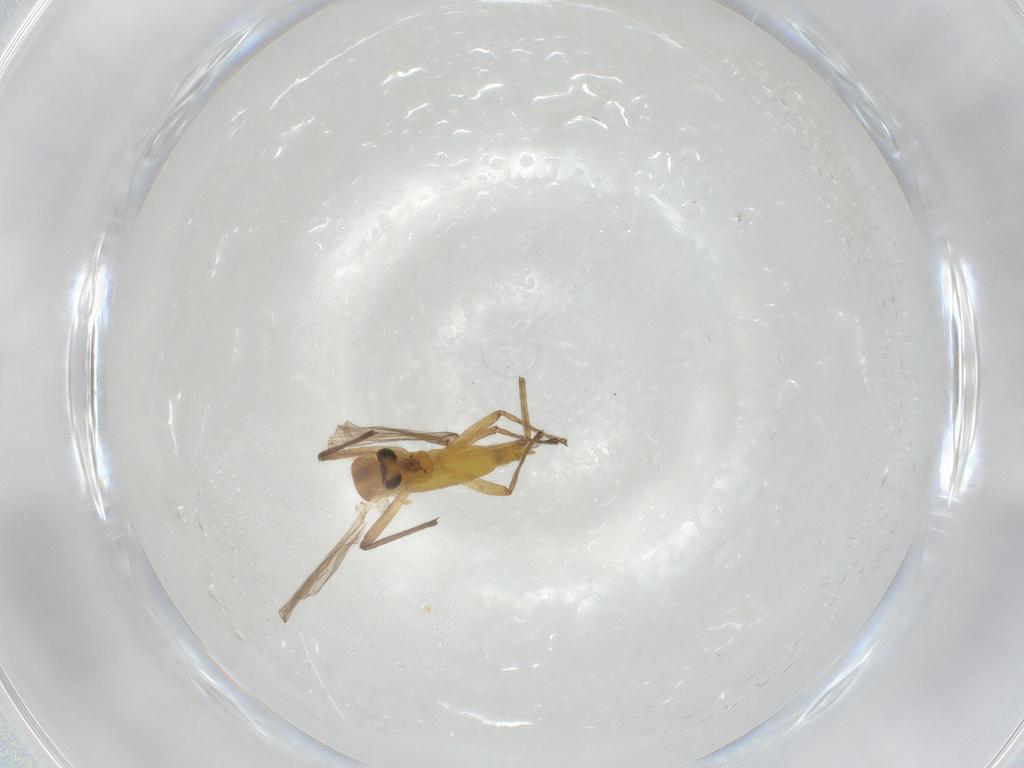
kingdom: Animalia
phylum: Arthropoda
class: Insecta
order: Diptera
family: Chironomidae
